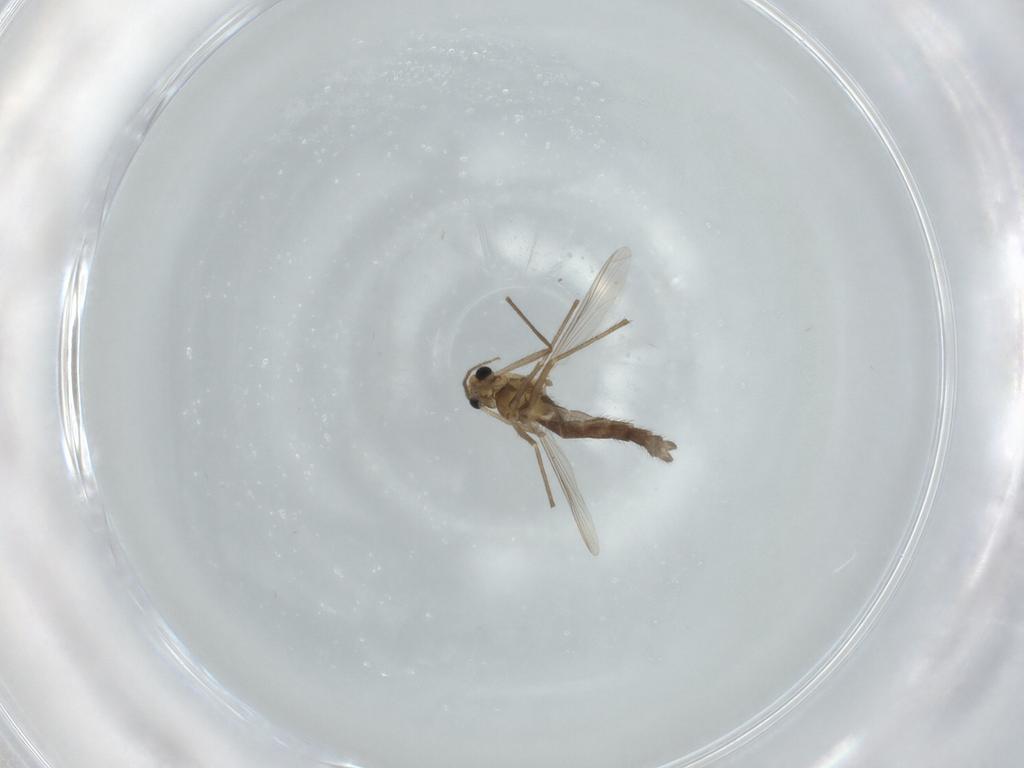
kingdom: Animalia
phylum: Arthropoda
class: Insecta
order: Diptera
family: Chironomidae
